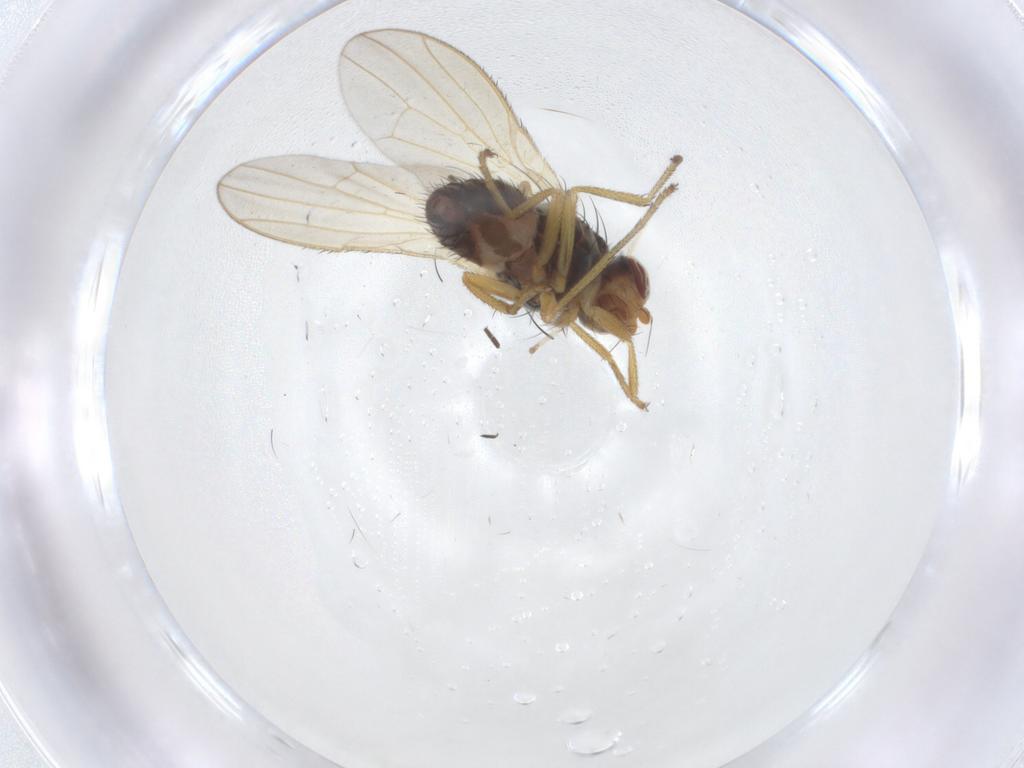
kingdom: Animalia
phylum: Arthropoda
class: Insecta
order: Diptera
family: Heleomyzidae
